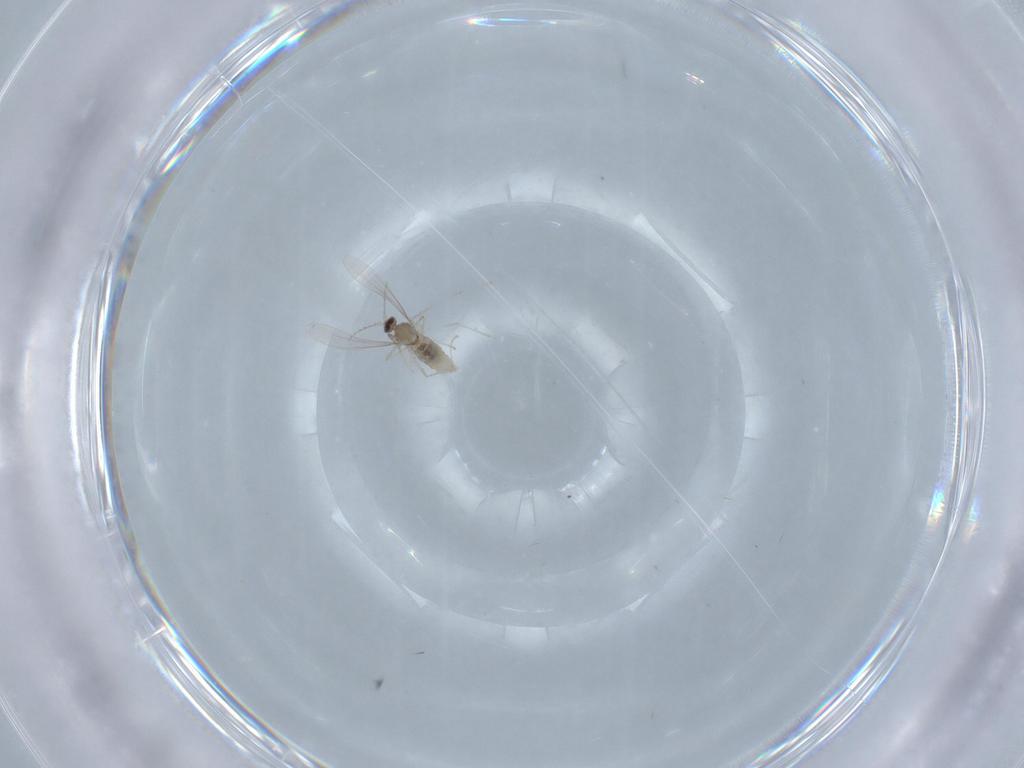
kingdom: Animalia
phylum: Arthropoda
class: Insecta
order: Diptera
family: Cecidomyiidae
